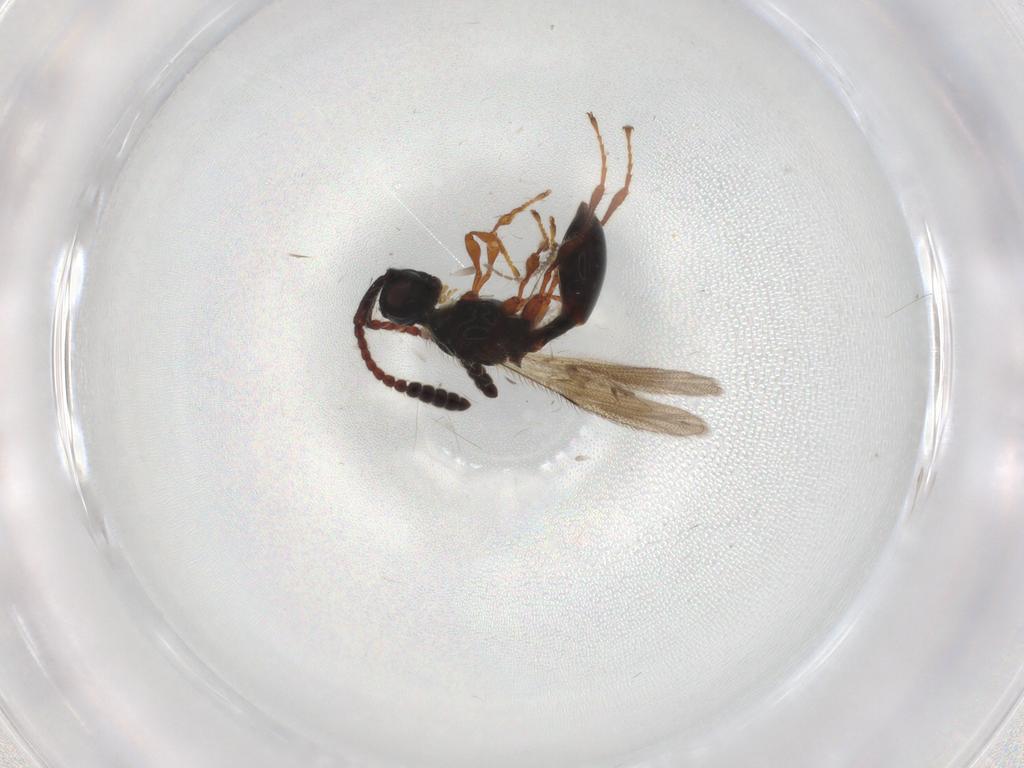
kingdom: Animalia
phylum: Arthropoda
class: Insecta
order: Hymenoptera
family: Diapriidae
